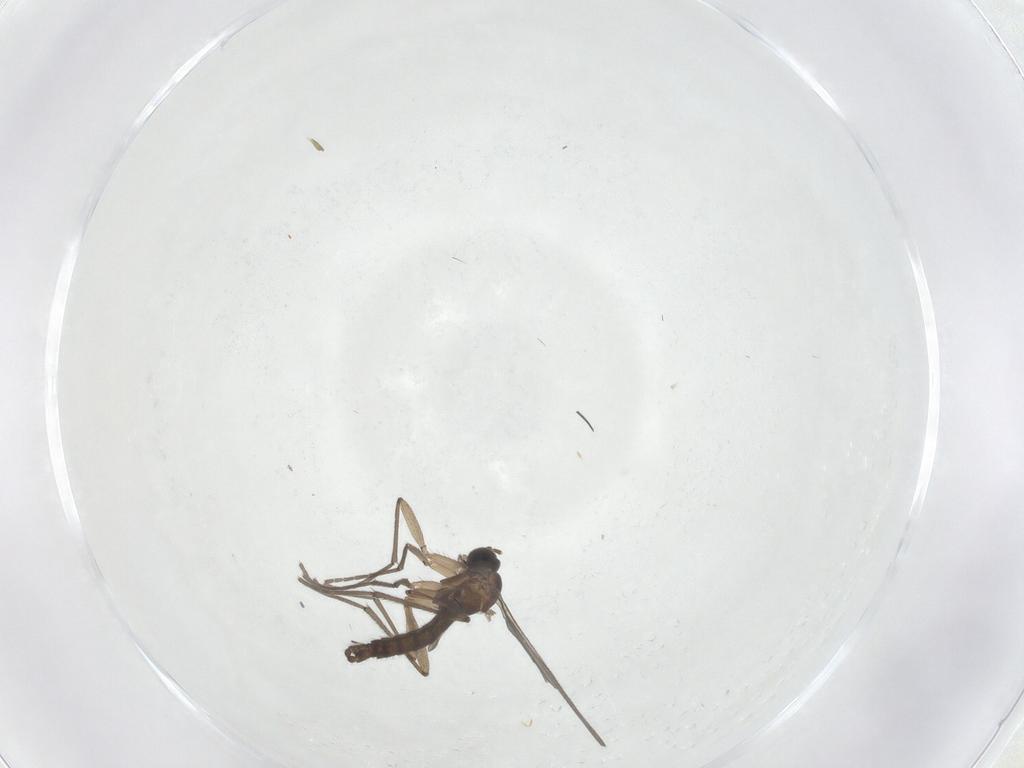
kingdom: Animalia
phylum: Arthropoda
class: Insecta
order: Diptera
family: Sciaridae
